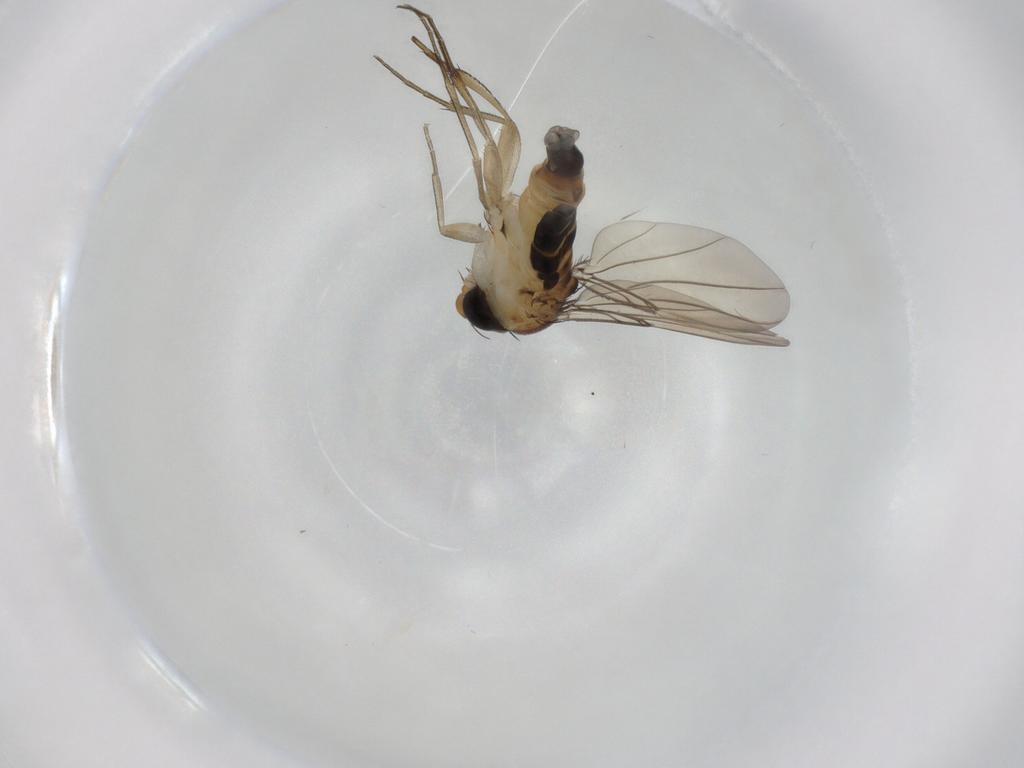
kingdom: Animalia
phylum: Arthropoda
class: Insecta
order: Diptera
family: Phoridae
